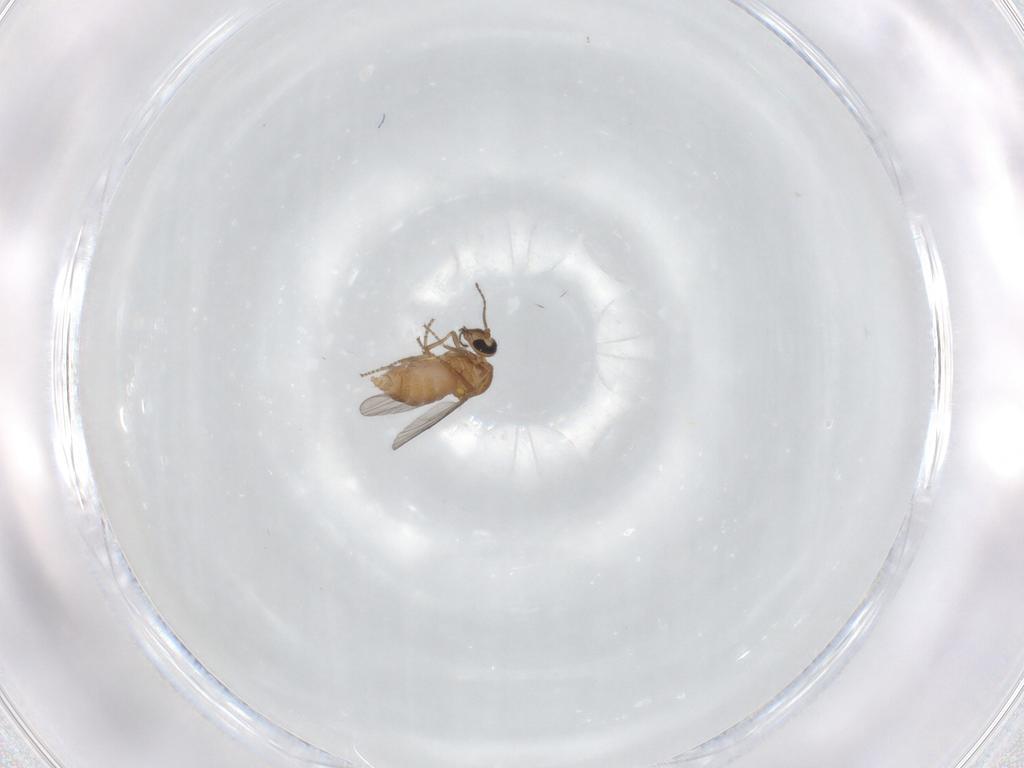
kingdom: Animalia
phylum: Arthropoda
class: Insecta
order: Diptera
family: Ceratopogonidae
